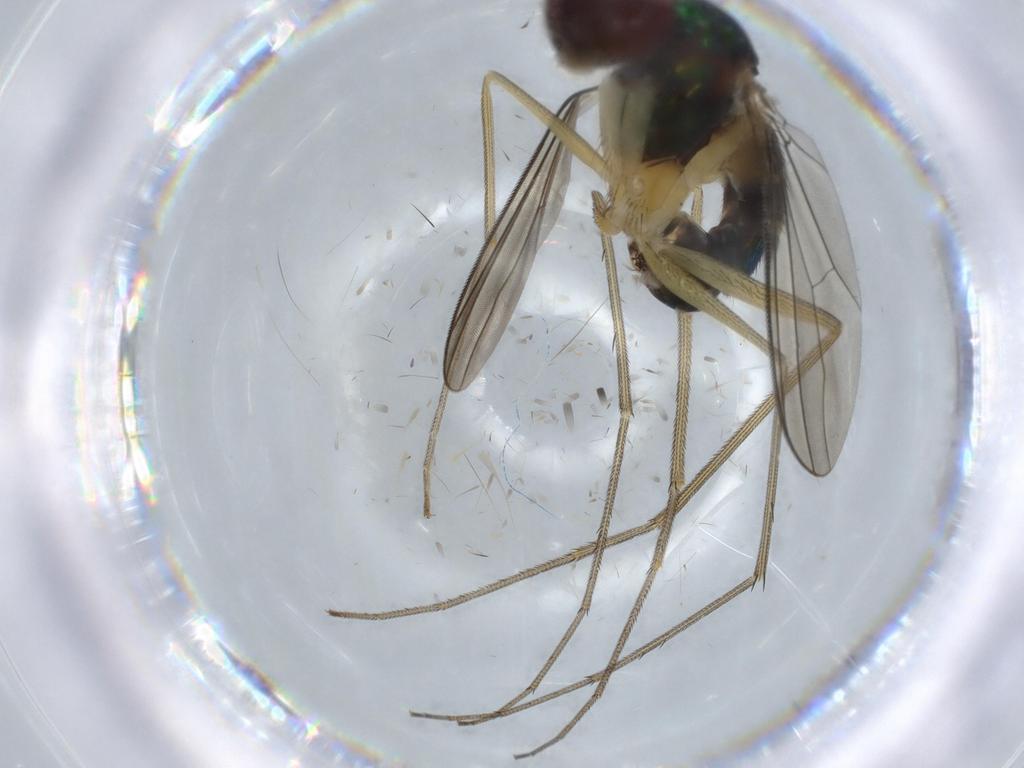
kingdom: Animalia
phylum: Arthropoda
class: Insecta
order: Diptera
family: Dolichopodidae
